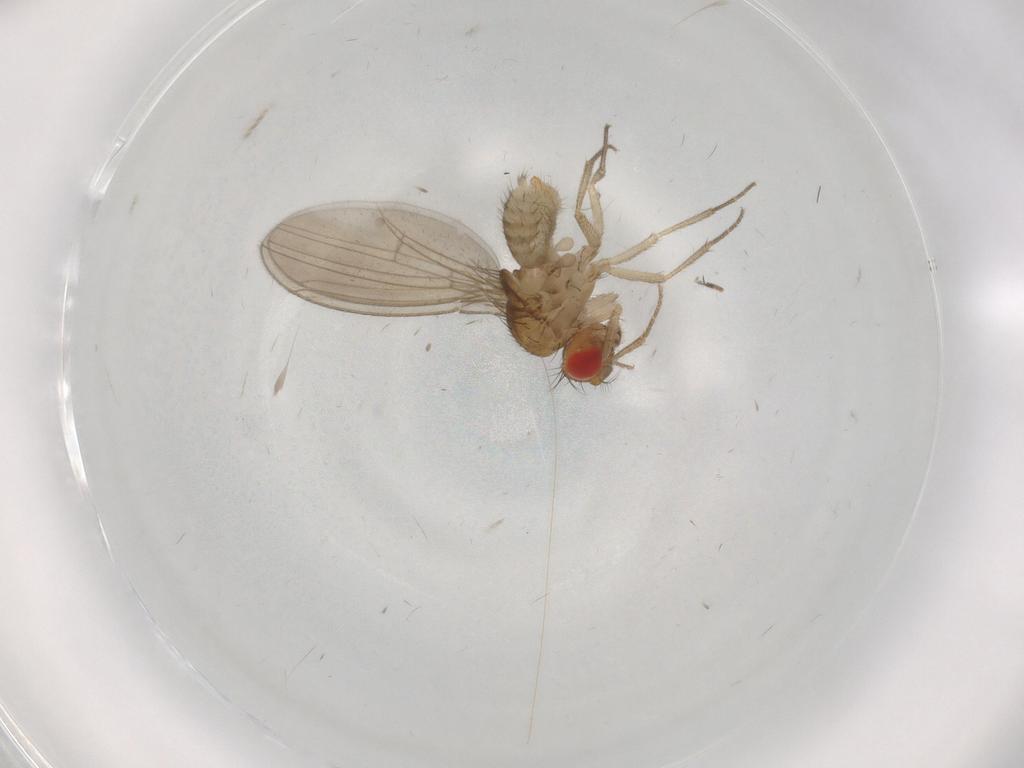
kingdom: Animalia
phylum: Arthropoda
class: Insecta
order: Diptera
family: Drosophilidae
